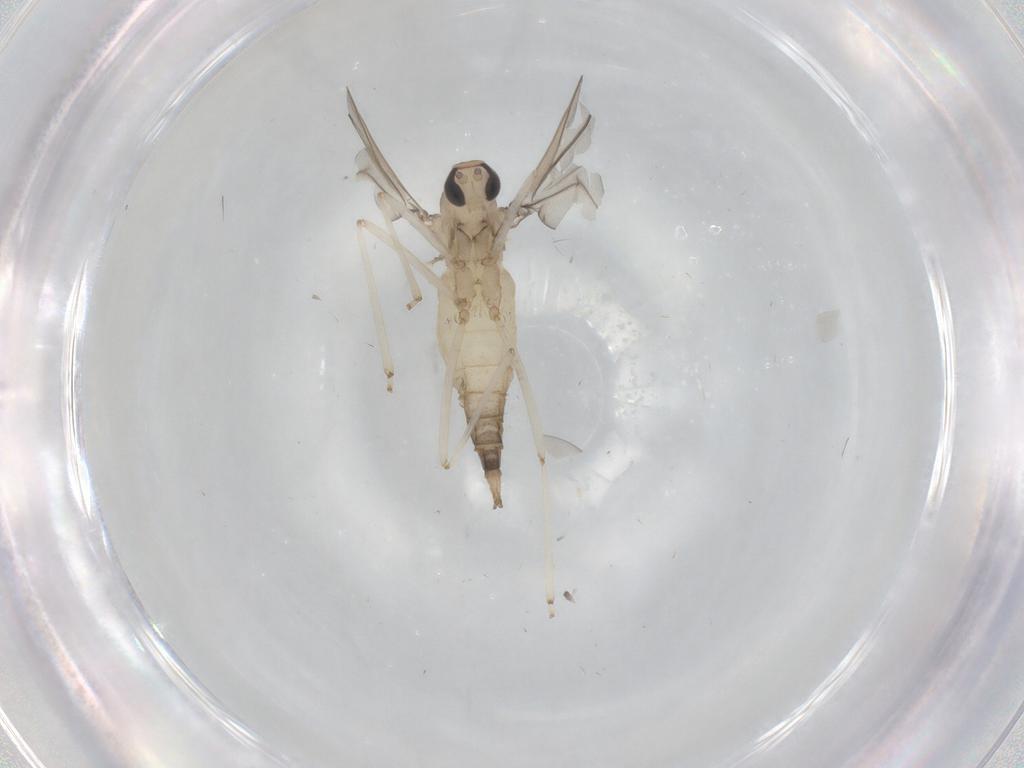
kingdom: Animalia
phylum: Arthropoda
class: Insecta
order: Diptera
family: Cecidomyiidae
